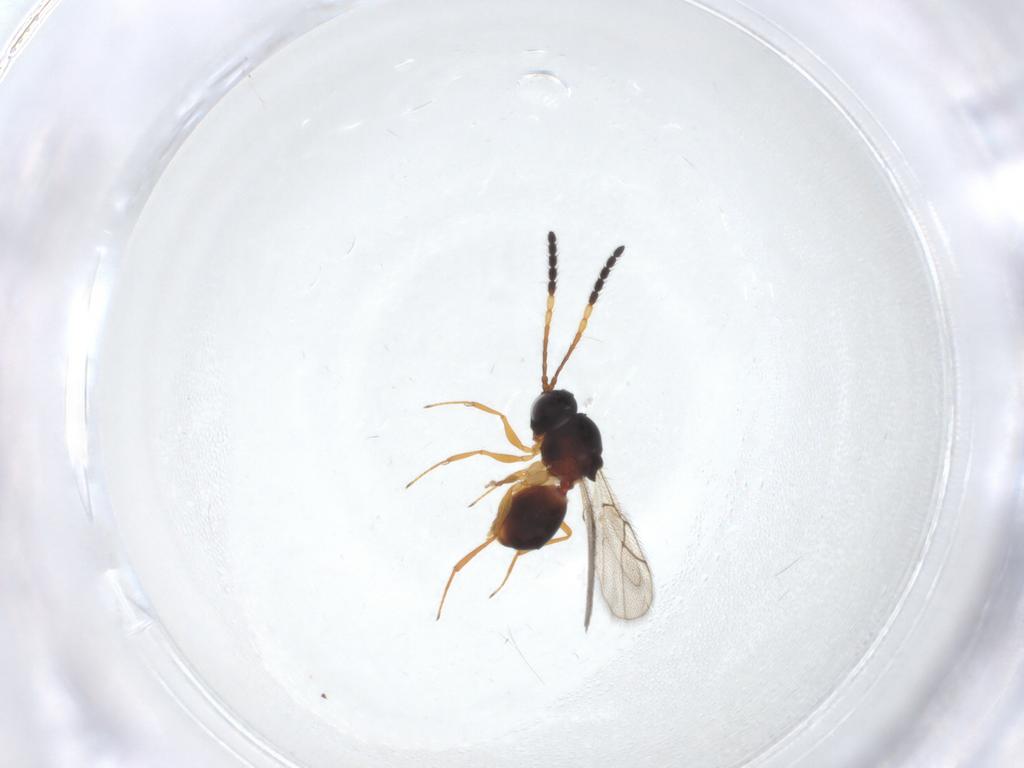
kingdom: Animalia
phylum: Arthropoda
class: Insecta
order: Hymenoptera
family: Figitidae
